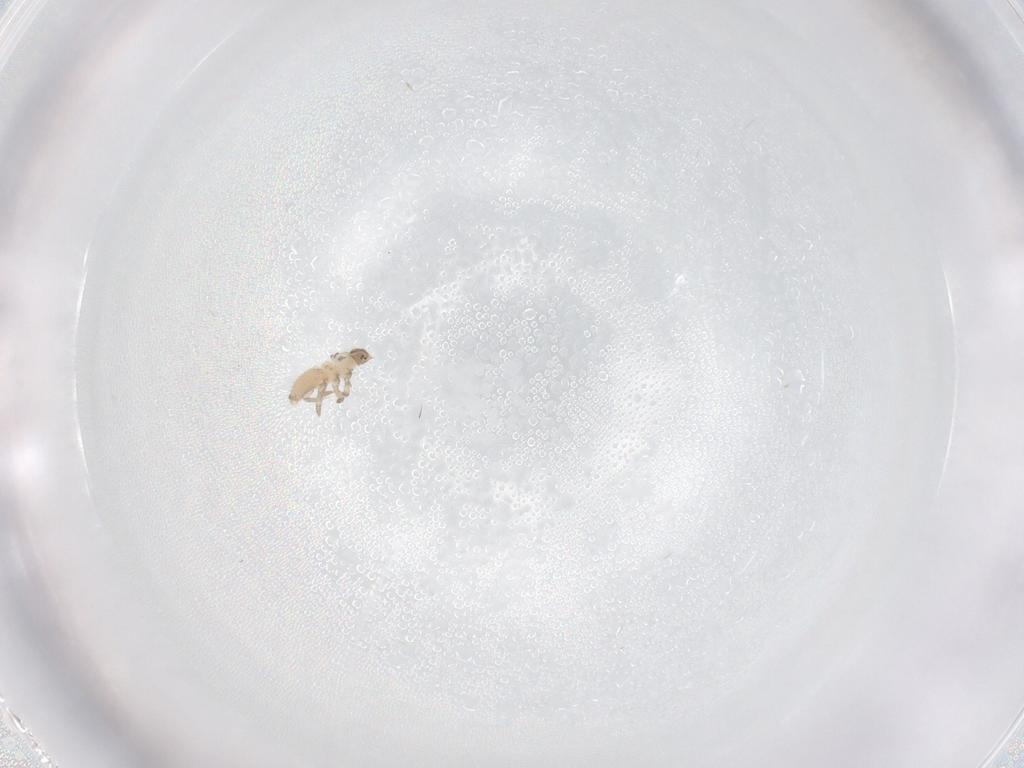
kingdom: Animalia
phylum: Arthropoda
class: Insecta
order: Diptera
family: Cecidomyiidae
